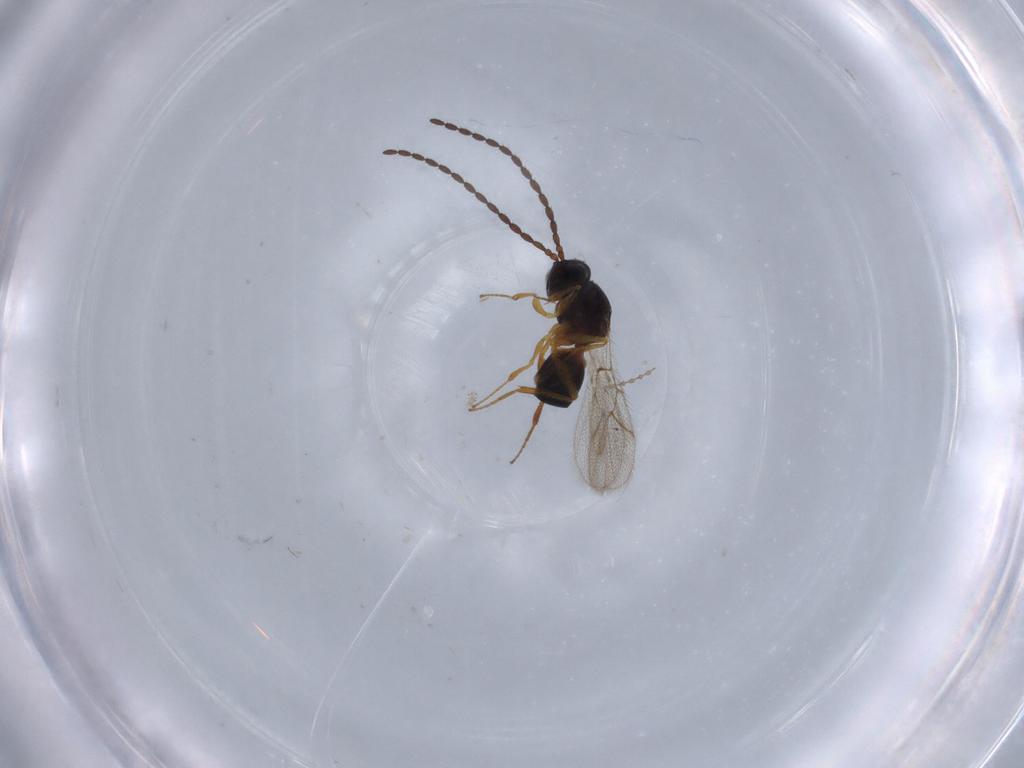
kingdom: Animalia
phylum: Arthropoda
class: Insecta
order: Hymenoptera
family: Figitidae
